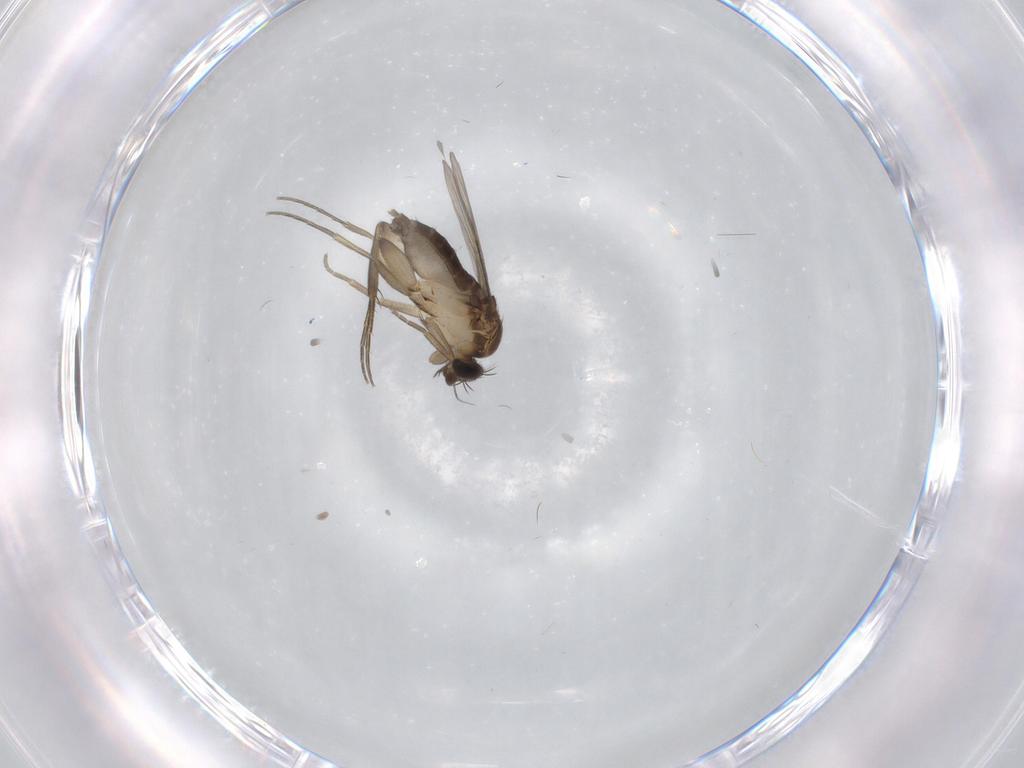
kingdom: Animalia
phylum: Arthropoda
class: Insecta
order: Diptera
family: Phoridae
